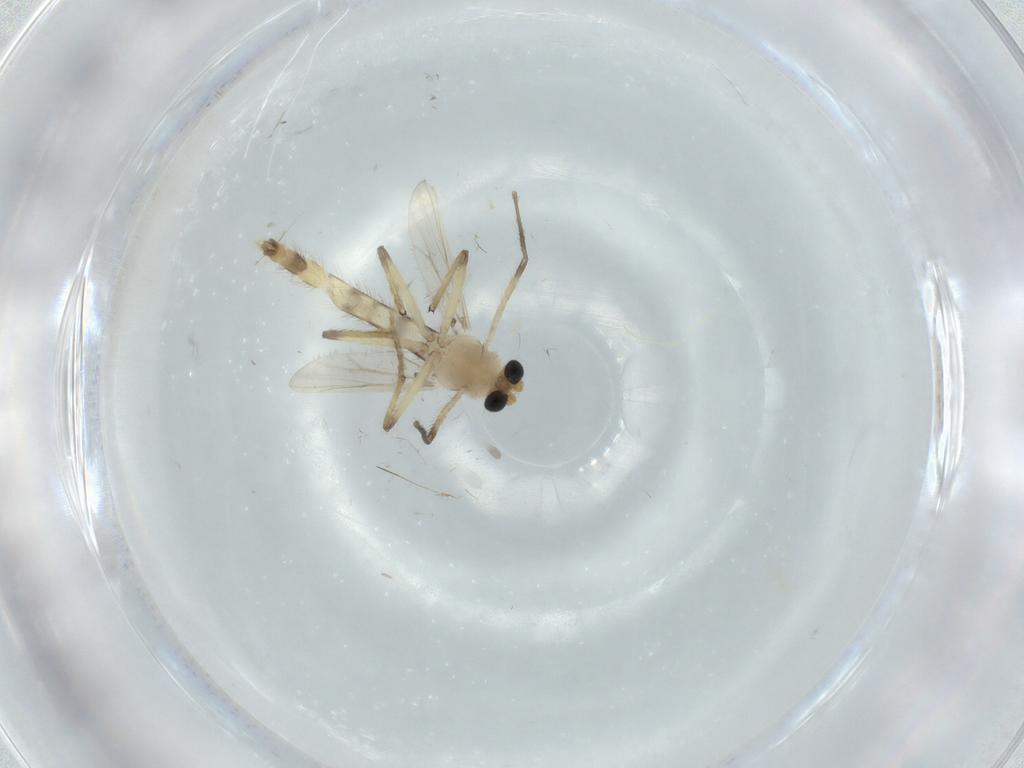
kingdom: Animalia
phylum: Arthropoda
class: Insecta
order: Diptera
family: Chironomidae
